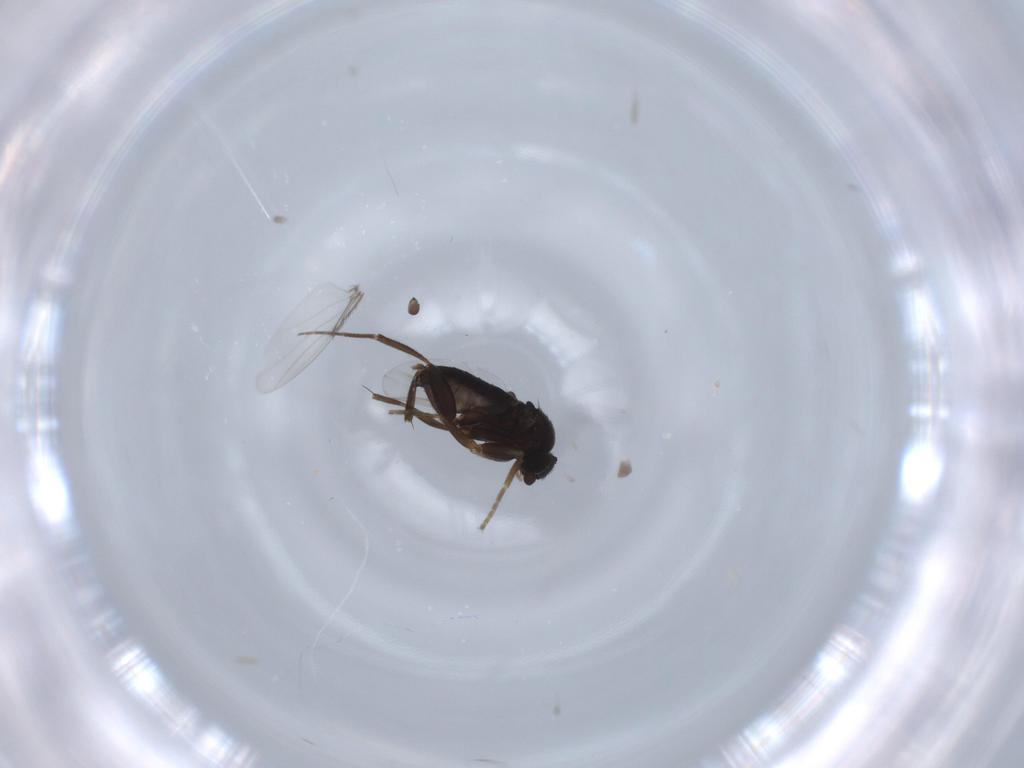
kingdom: Animalia
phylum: Arthropoda
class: Insecta
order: Diptera
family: Phoridae
